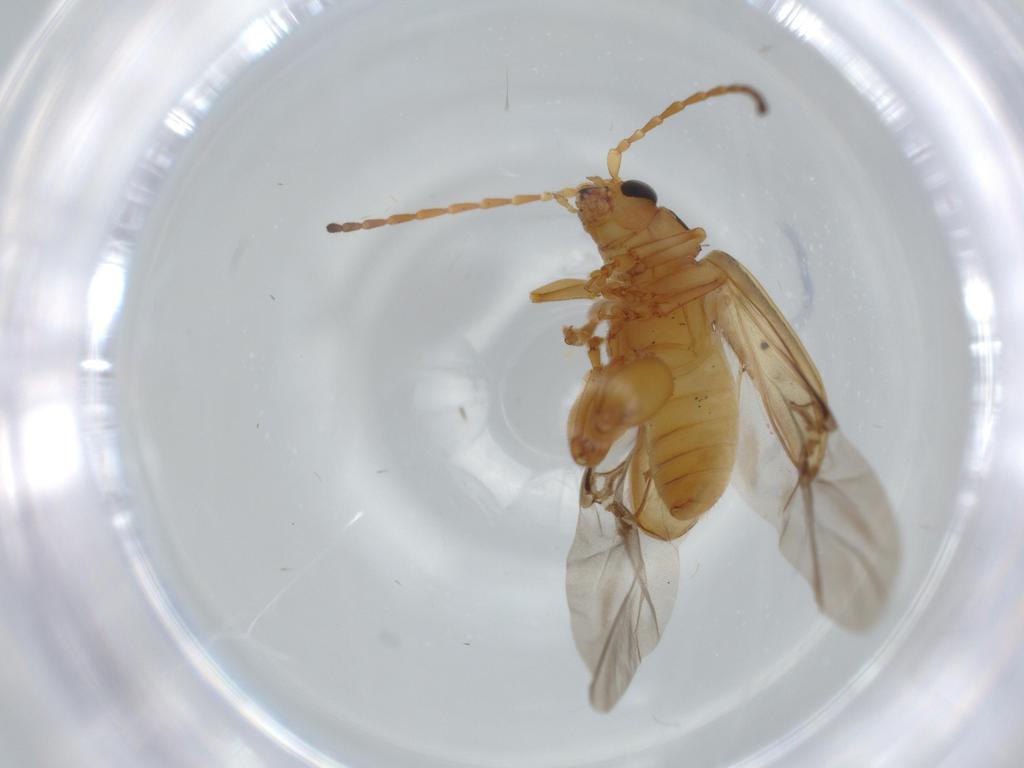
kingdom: Animalia
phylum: Arthropoda
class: Insecta
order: Coleoptera
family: Chrysomelidae
